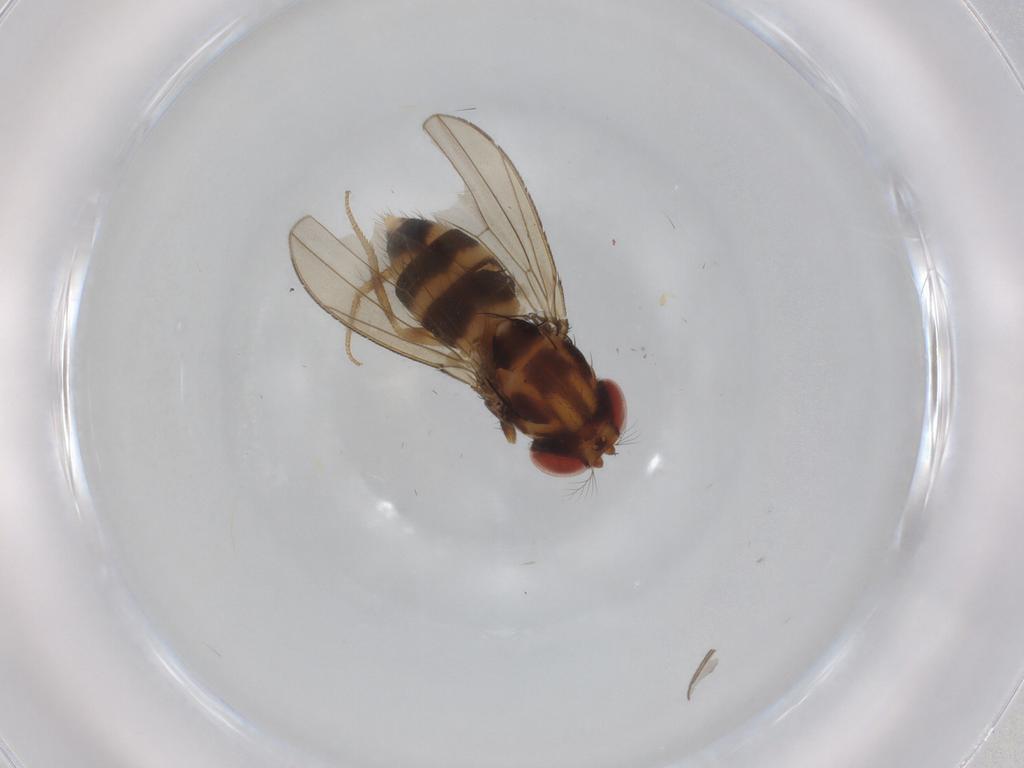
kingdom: Animalia
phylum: Arthropoda
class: Insecta
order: Diptera
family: Drosophilidae
